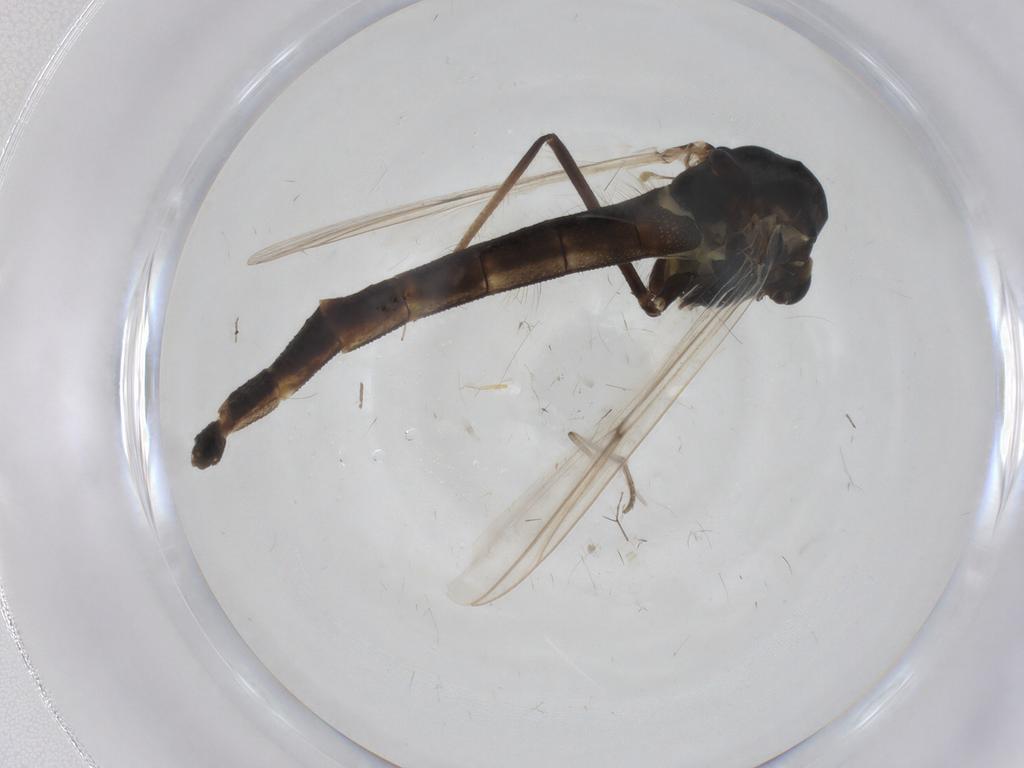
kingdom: Animalia
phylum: Arthropoda
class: Insecta
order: Diptera
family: Chironomidae
